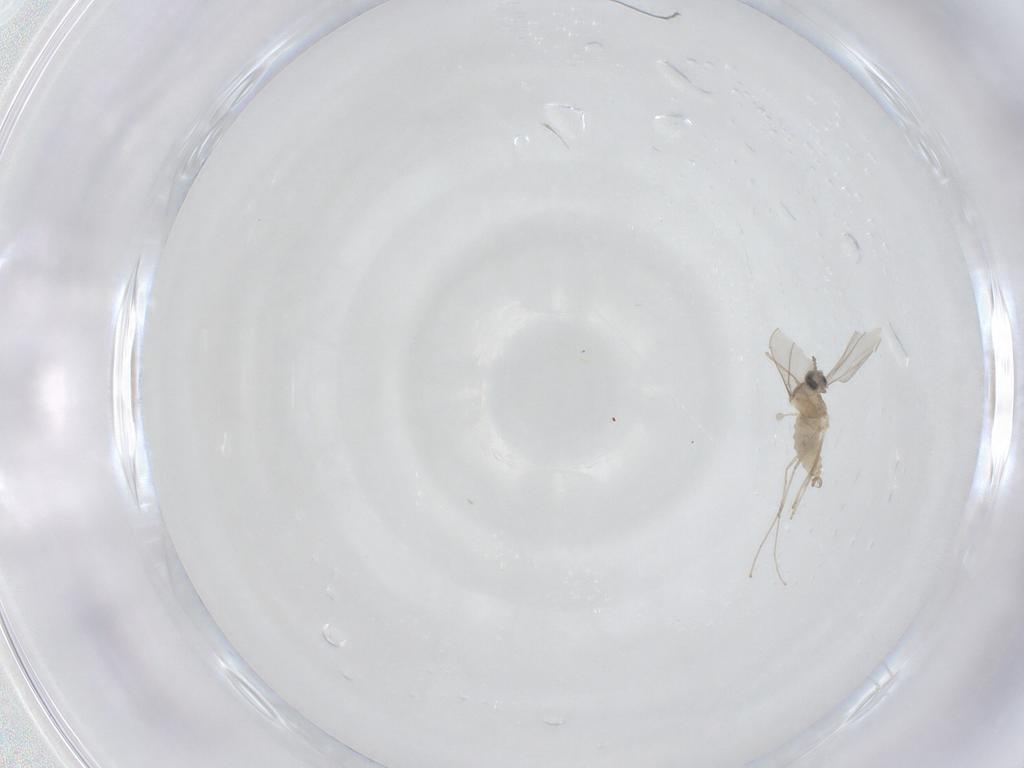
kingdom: Animalia
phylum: Arthropoda
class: Insecta
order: Diptera
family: Cecidomyiidae
